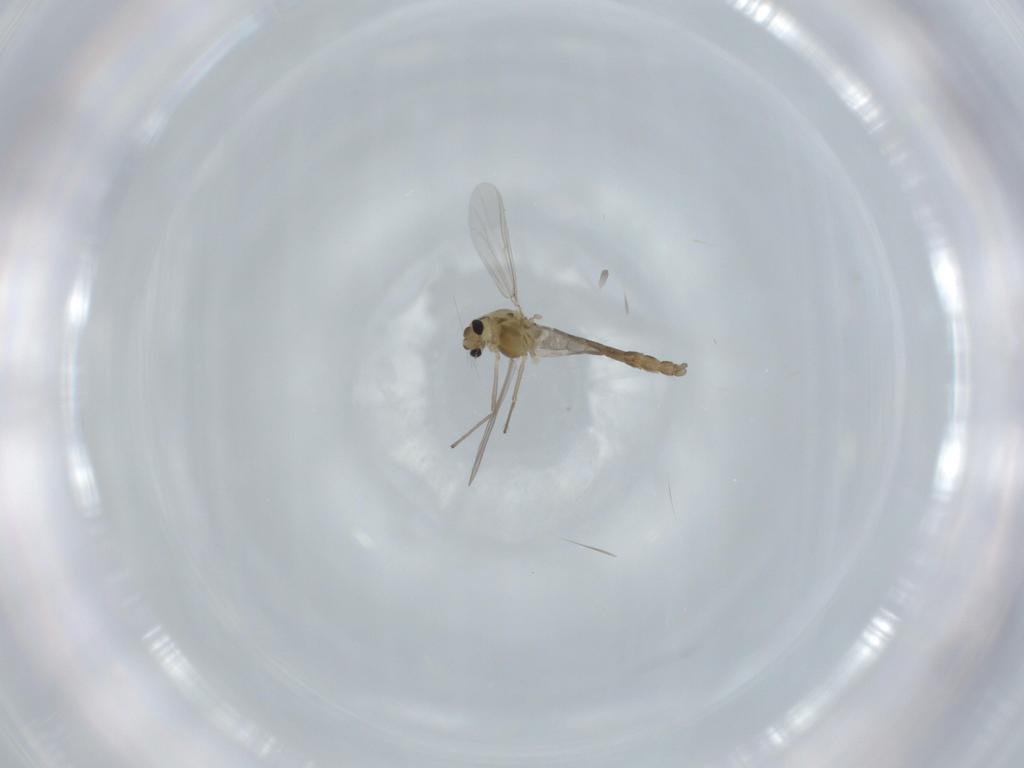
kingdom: Animalia
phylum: Arthropoda
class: Insecta
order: Diptera
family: Chironomidae
